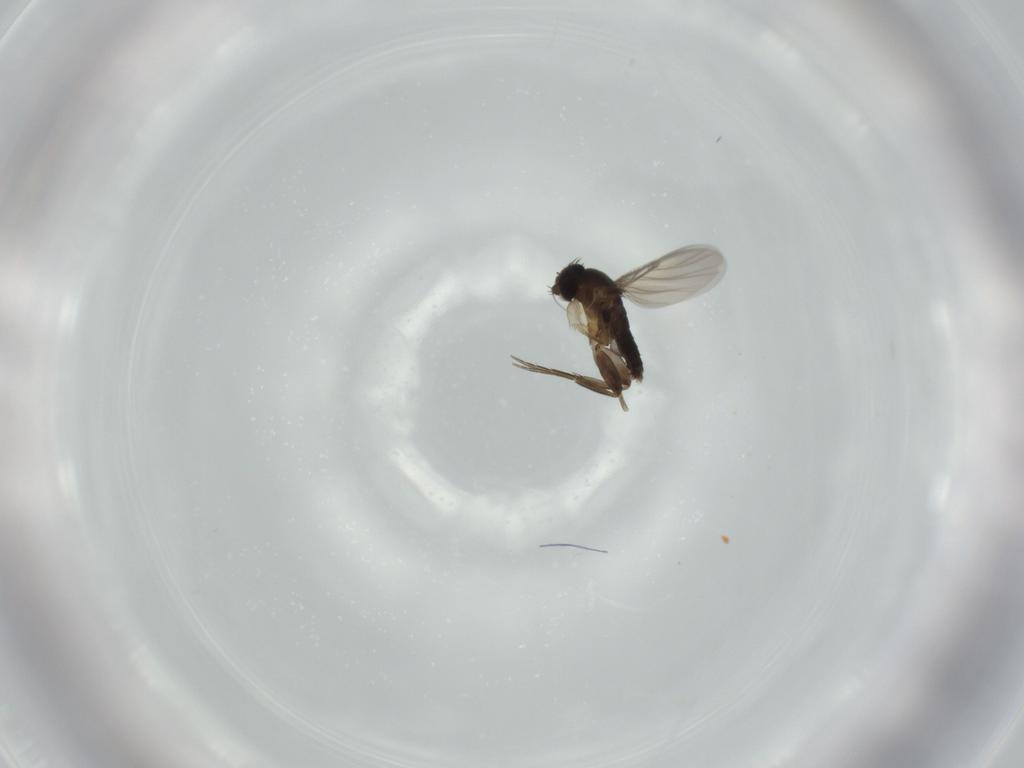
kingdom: Animalia
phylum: Arthropoda
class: Insecta
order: Diptera
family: Phoridae
